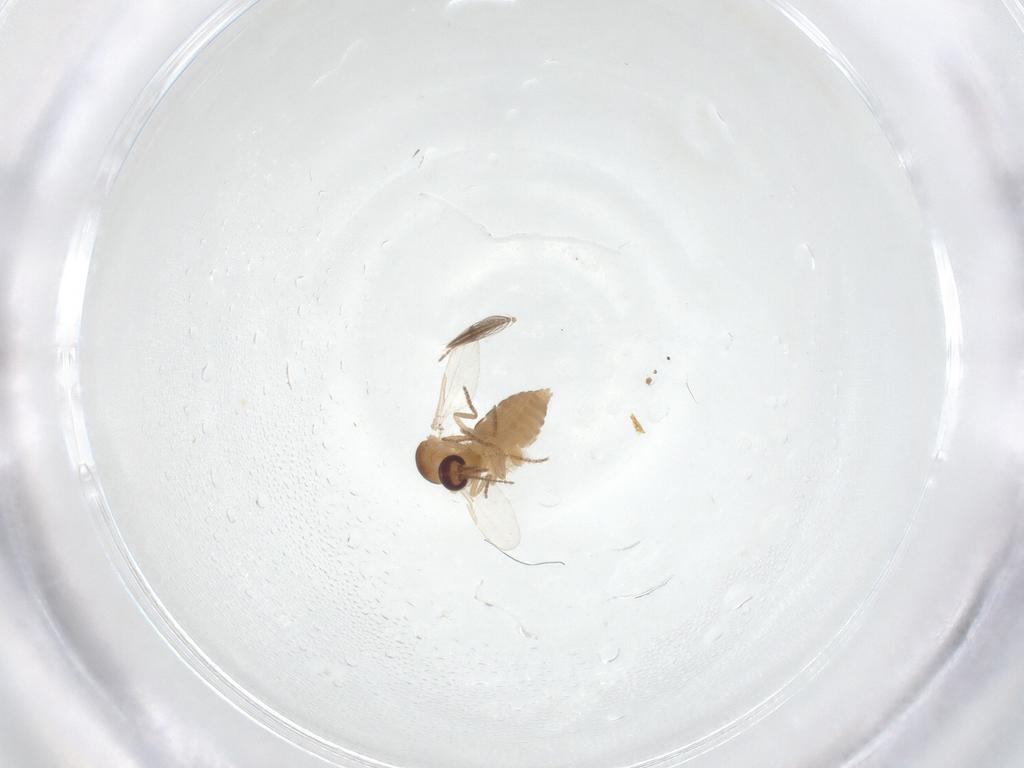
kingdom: Animalia
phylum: Arthropoda
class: Insecta
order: Diptera
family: Ceratopogonidae
